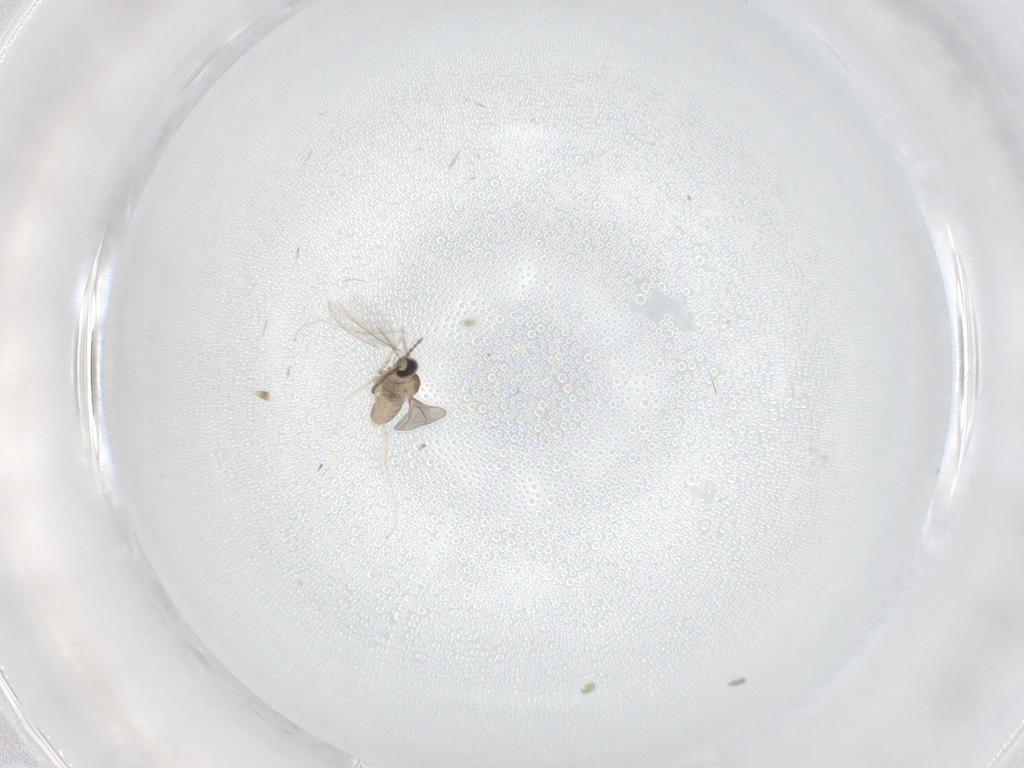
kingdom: Animalia
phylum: Arthropoda
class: Insecta
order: Diptera
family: Sciaridae
